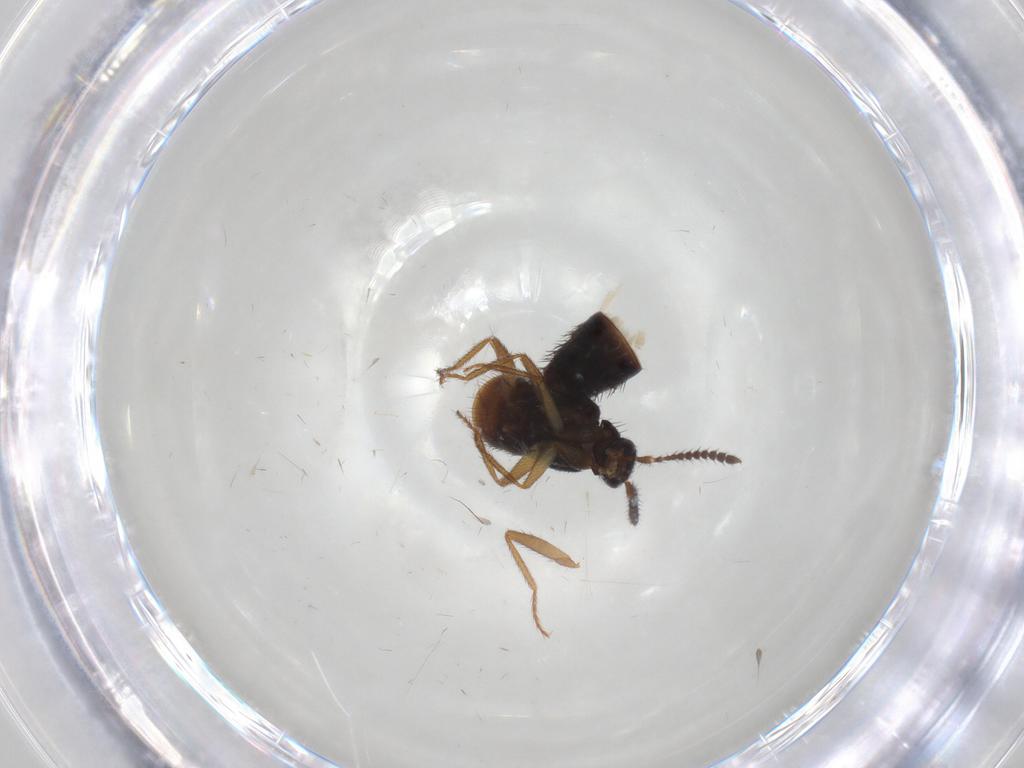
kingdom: Animalia
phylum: Arthropoda
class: Insecta
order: Coleoptera
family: Staphylinidae
